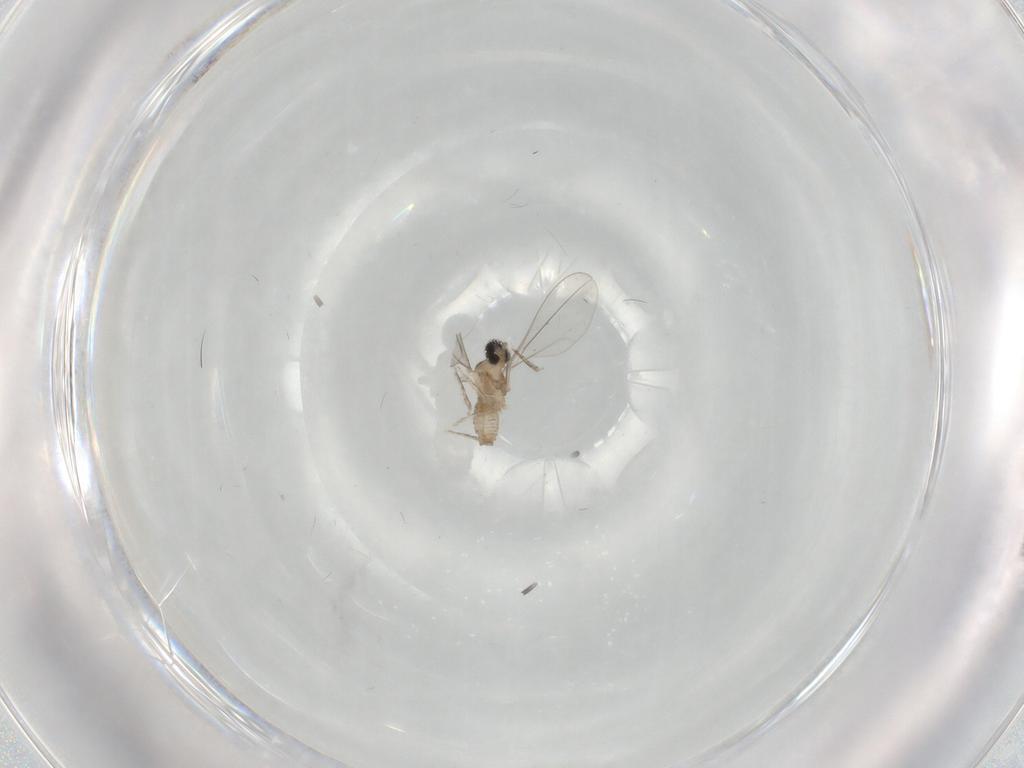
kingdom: Animalia
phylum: Arthropoda
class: Insecta
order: Diptera
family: Cecidomyiidae
